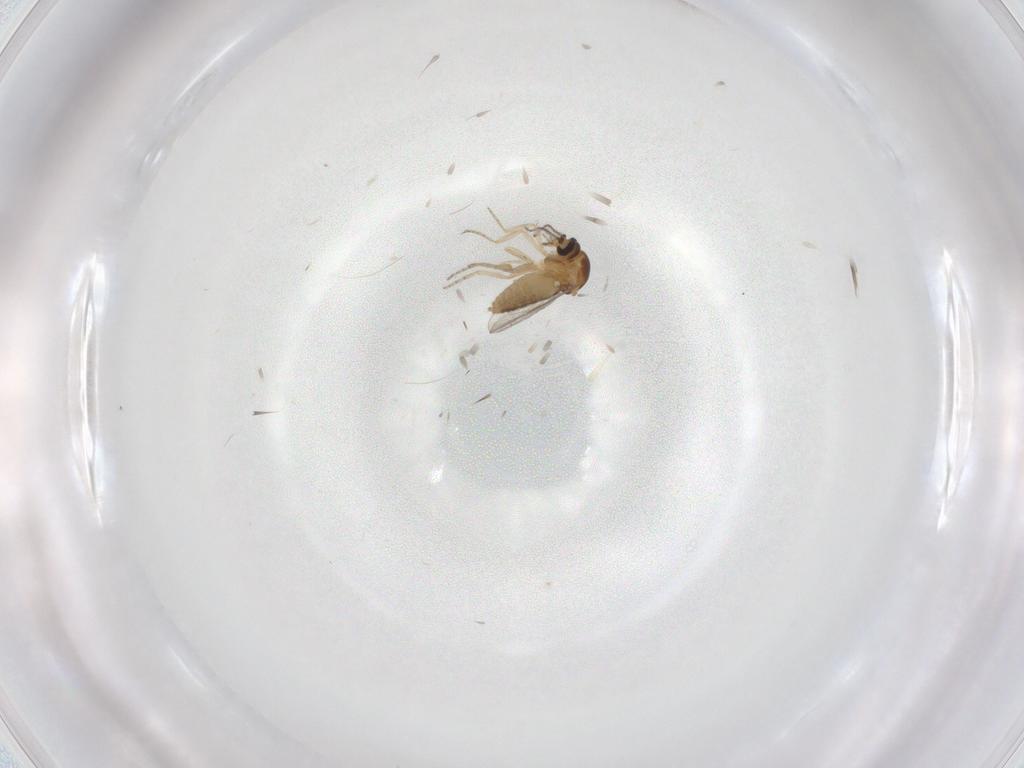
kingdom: Animalia
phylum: Arthropoda
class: Insecta
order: Diptera
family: Ceratopogonidae
